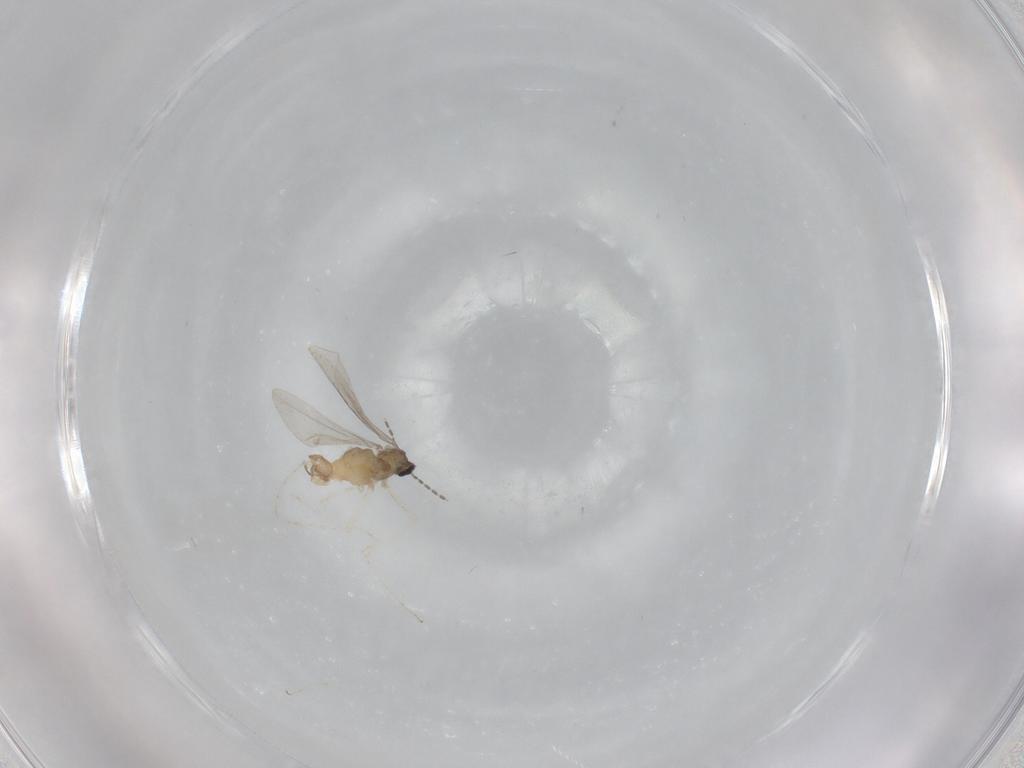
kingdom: Animalia
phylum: Arthropoda
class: Insecta
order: Diptera
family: Cecidomyiidae
